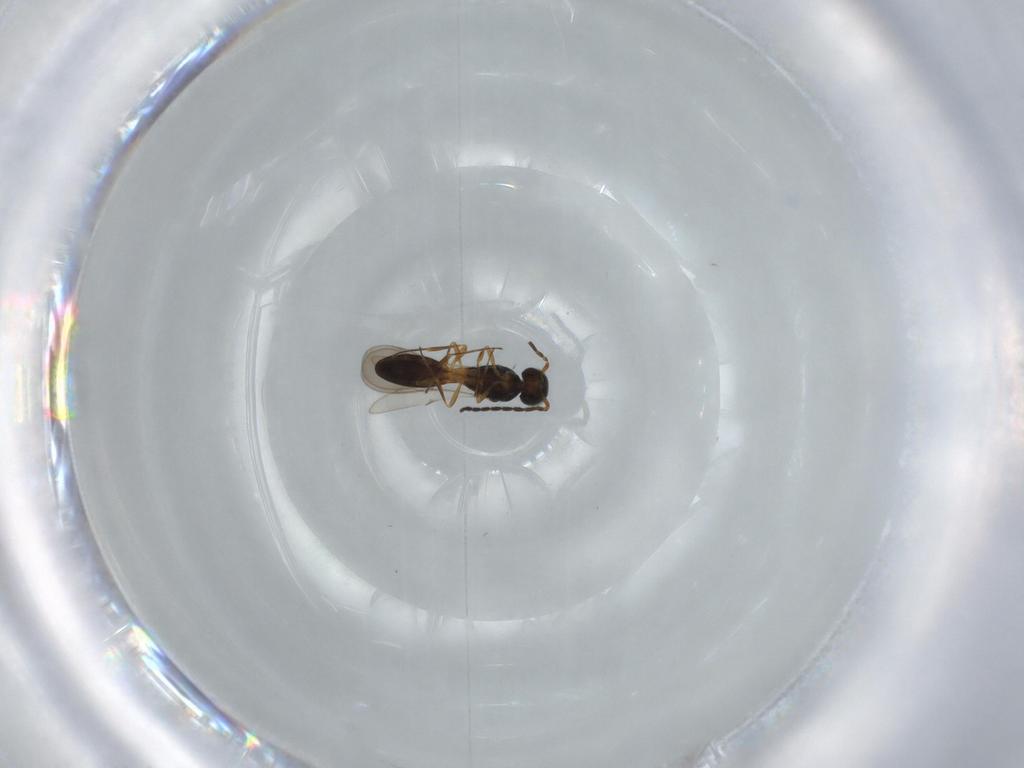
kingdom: Animalia
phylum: Arthropoda
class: Insecta
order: Hymenoptera
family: Scelionidae
